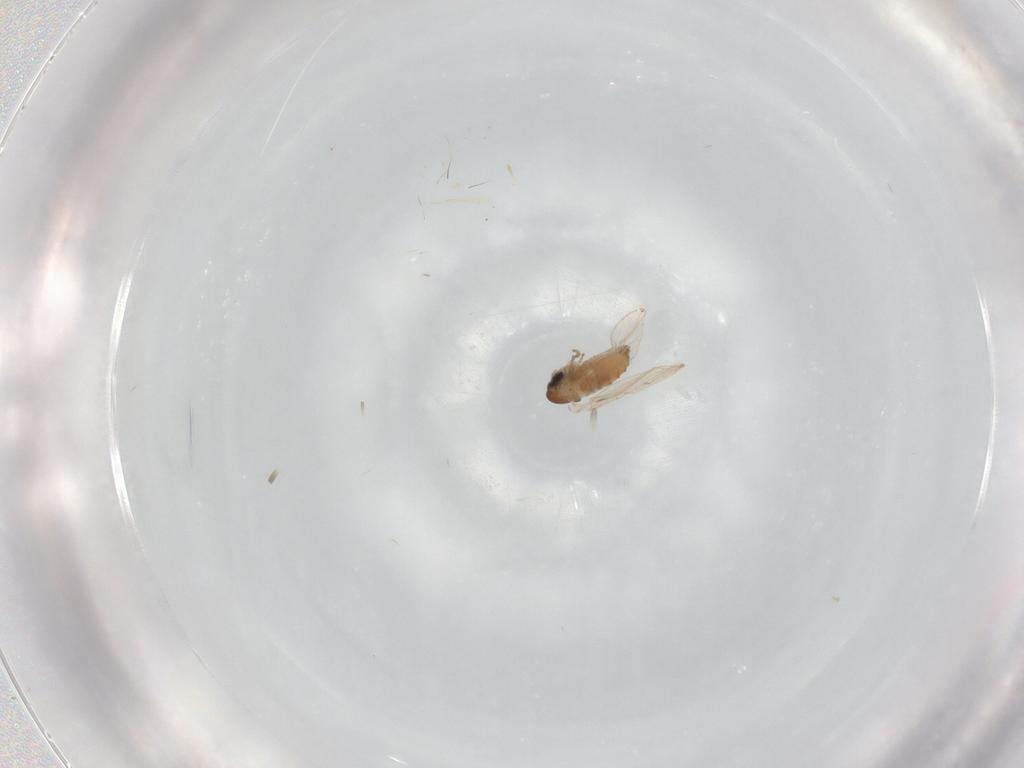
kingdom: Animalia
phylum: Arthropoda
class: Insecta
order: Diptera
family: Psychodidae
